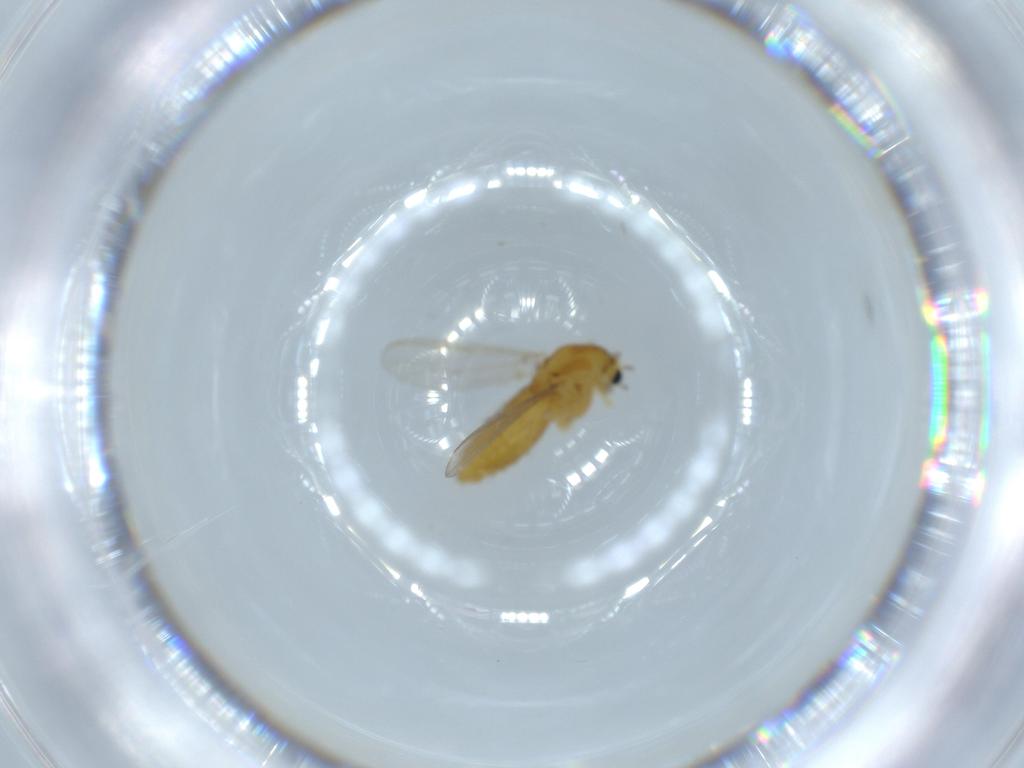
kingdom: Animalia
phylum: Arthropoda
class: Insecta
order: Diptera
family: Chironomidae
